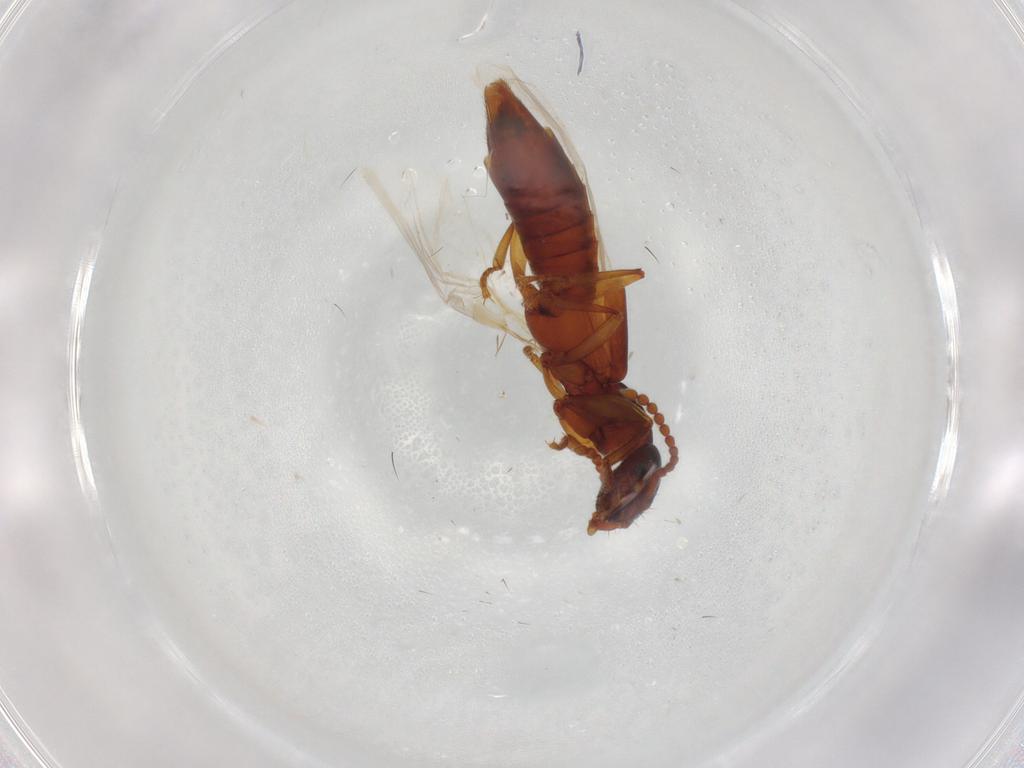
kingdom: Animalia
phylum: Arthropoda
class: Insecta
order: Coleoptera
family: Staphylinidae
